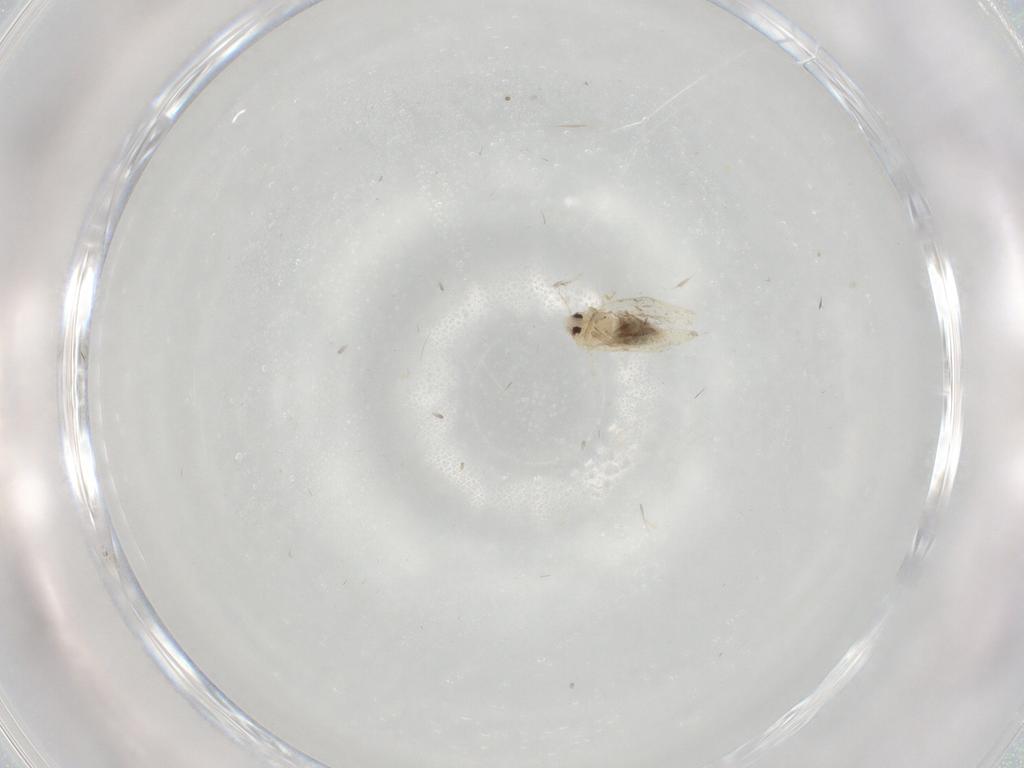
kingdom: Animalia
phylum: Arthropoda
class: Insecta
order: Hemiptera
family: Aleyrodidae
